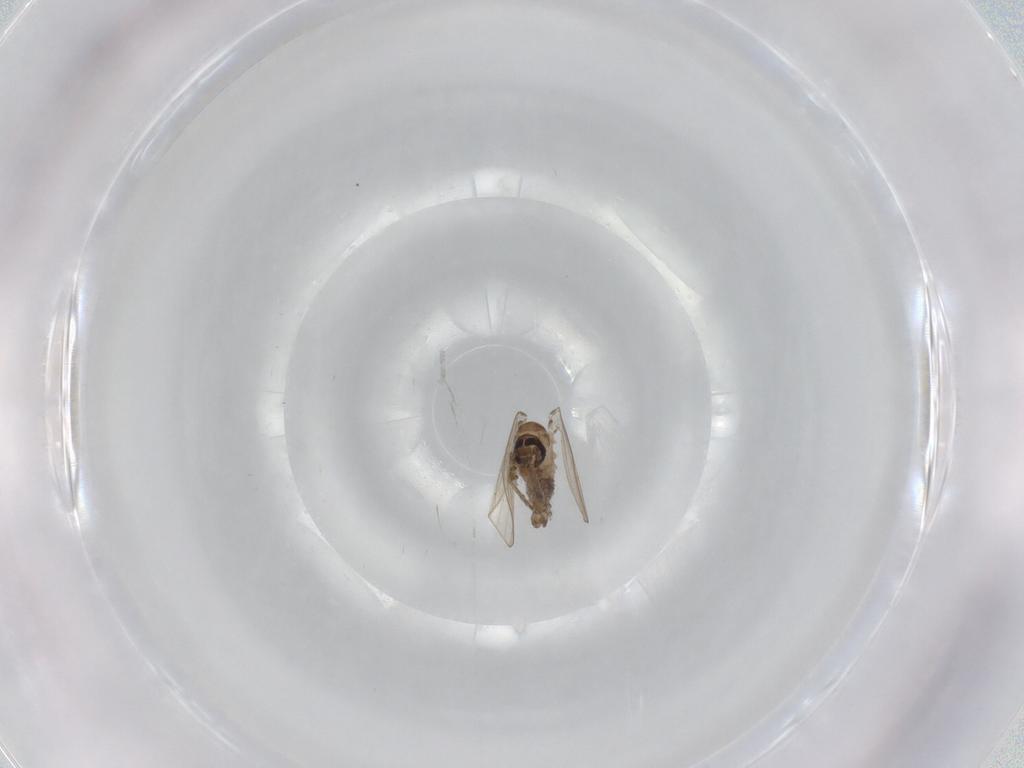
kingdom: Animalia
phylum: Arthropoda
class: Insecta
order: Diptera
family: Psychodidae
